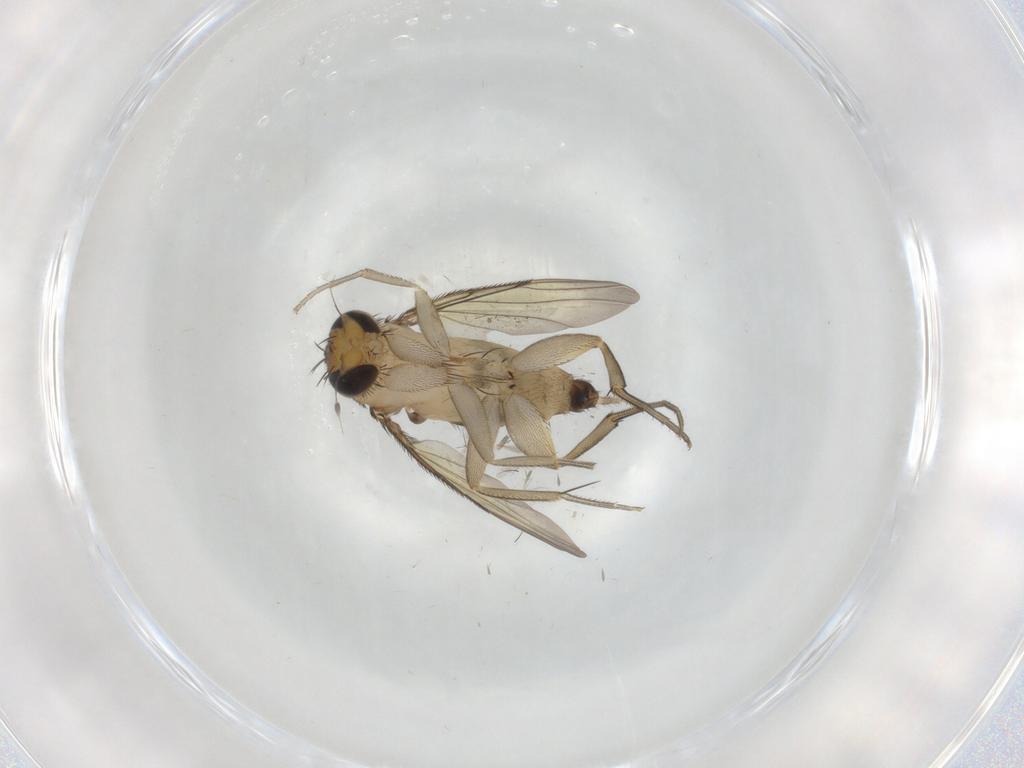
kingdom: Animalia
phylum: Arthropoda
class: Insecta
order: Diptera
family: Phoridae
